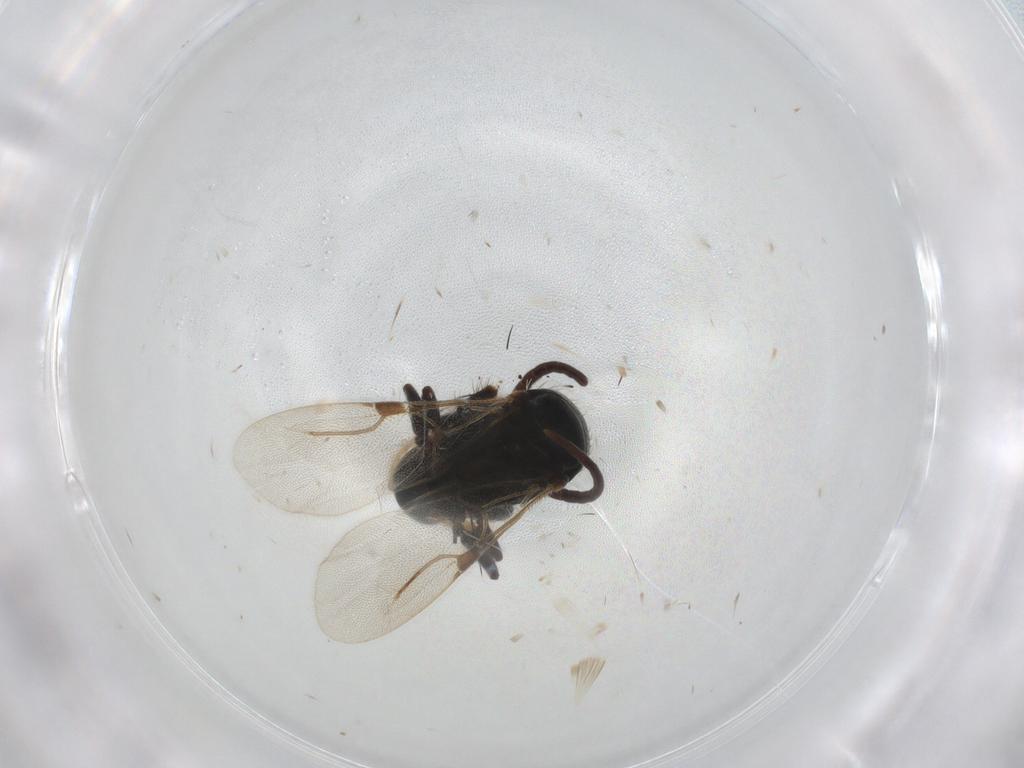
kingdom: Animalia
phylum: Arthropoda
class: Insecta
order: Hymenoptera
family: Bethylidae
